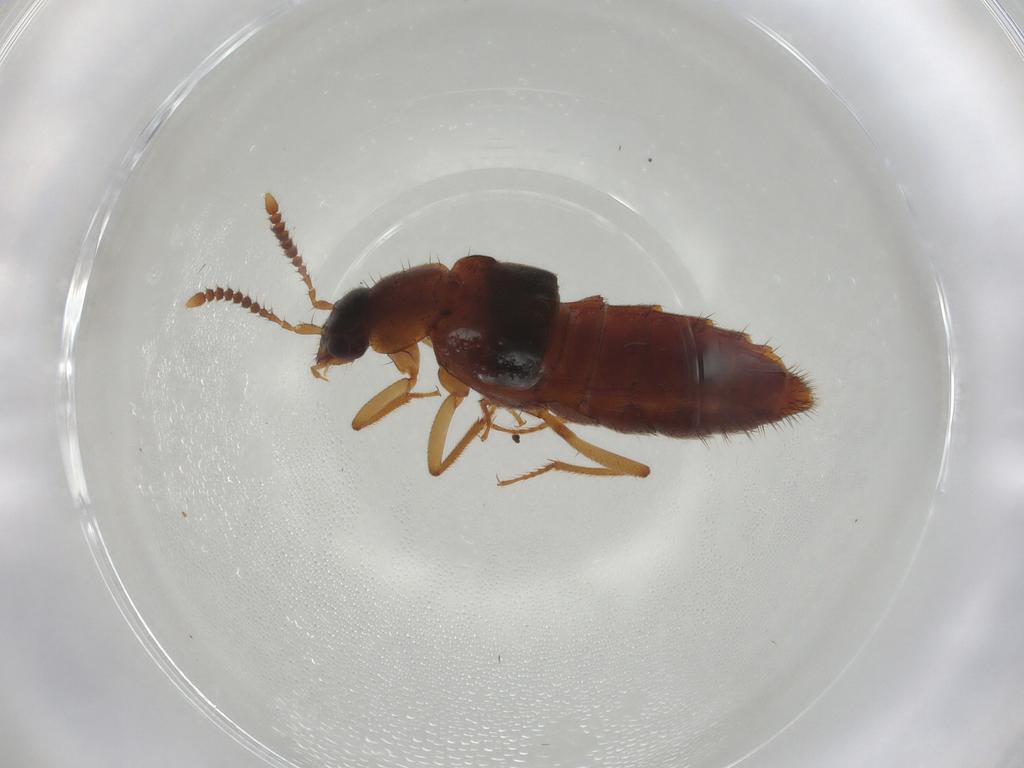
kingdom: Animalia
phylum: Arthropoda
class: Insecta
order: Coleoptera
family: Staphylinidae
